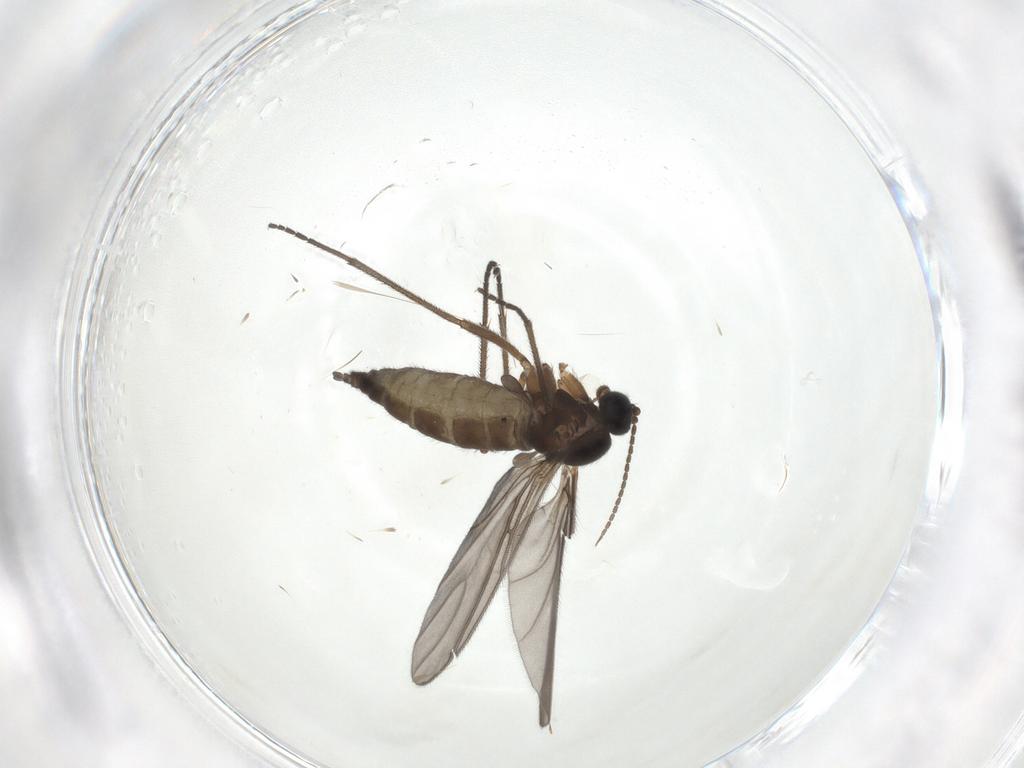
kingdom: Animalia
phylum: Arthropoda
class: Insecta
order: Diptera
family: Sciaridae
